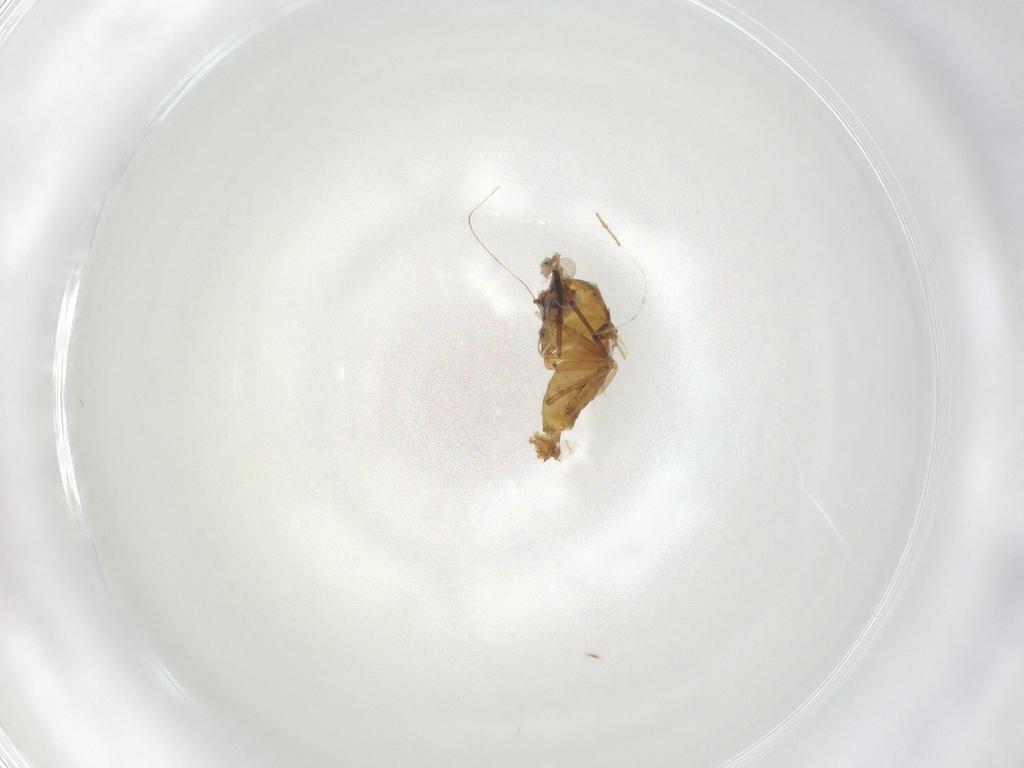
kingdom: Animalia
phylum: Arthropoda
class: Insecta
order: Diptera
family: Chironomidae
